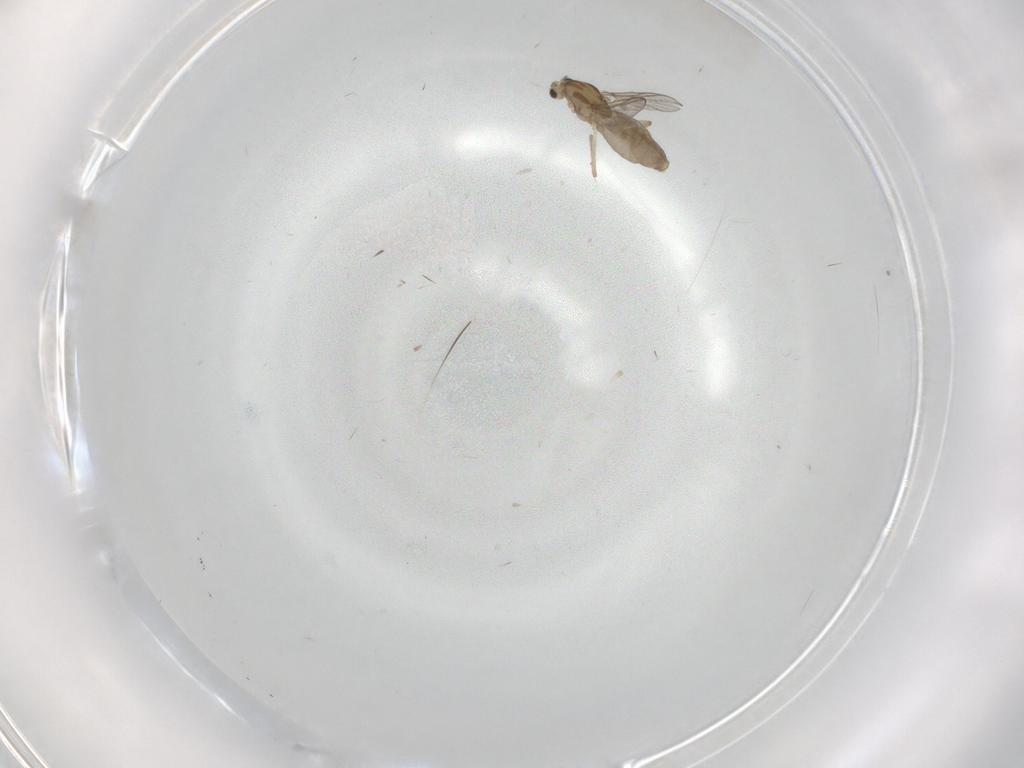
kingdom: Animalia
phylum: Arthropoda
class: Insecta
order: Diptera
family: Chironomidae
